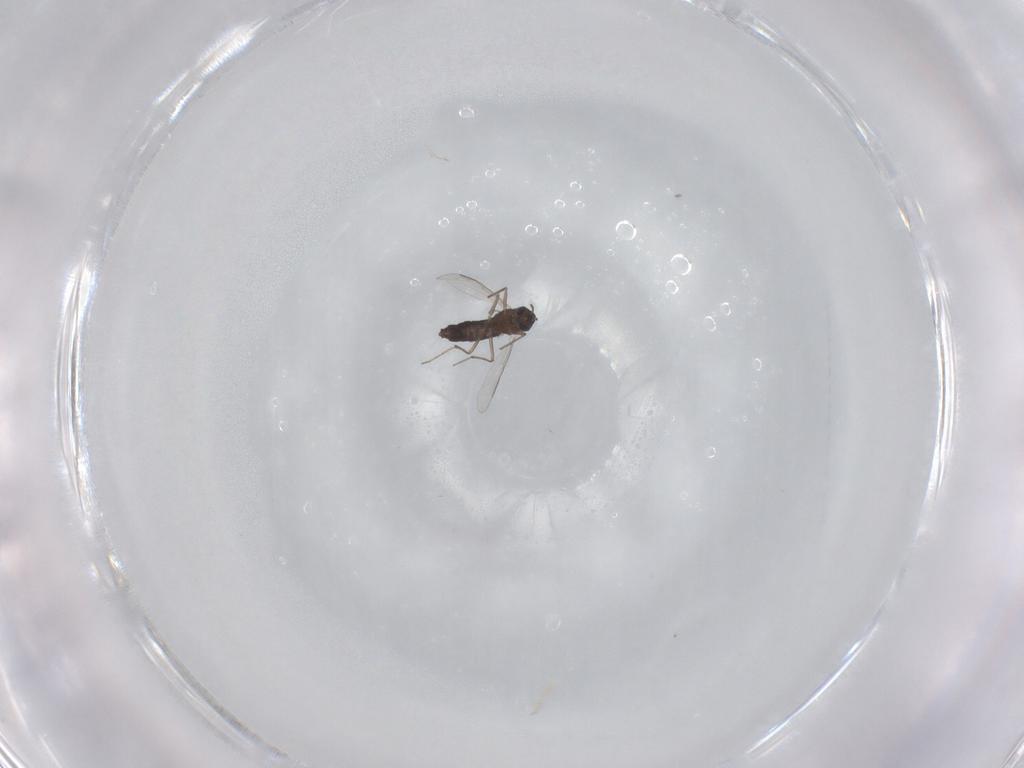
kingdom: Animalia
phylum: Arthropoda
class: Insecta
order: Diptera
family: Chironomidae
